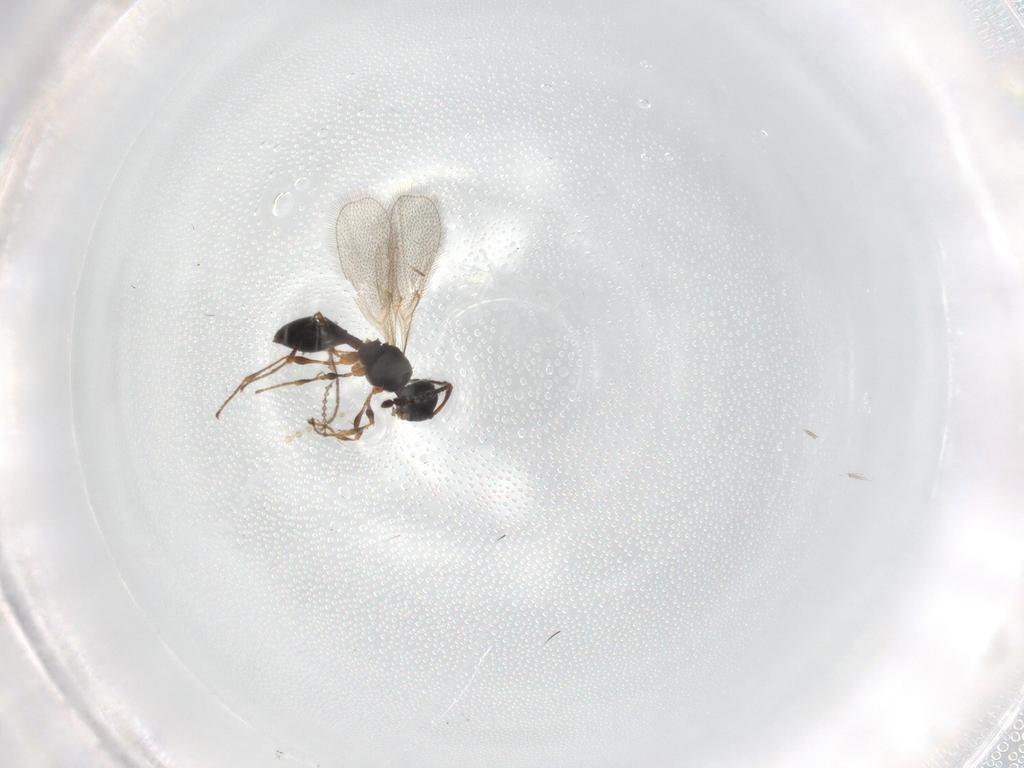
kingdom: Animalia
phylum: Arthropoda
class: Insecta
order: Hymenoptera
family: Diapriidae
